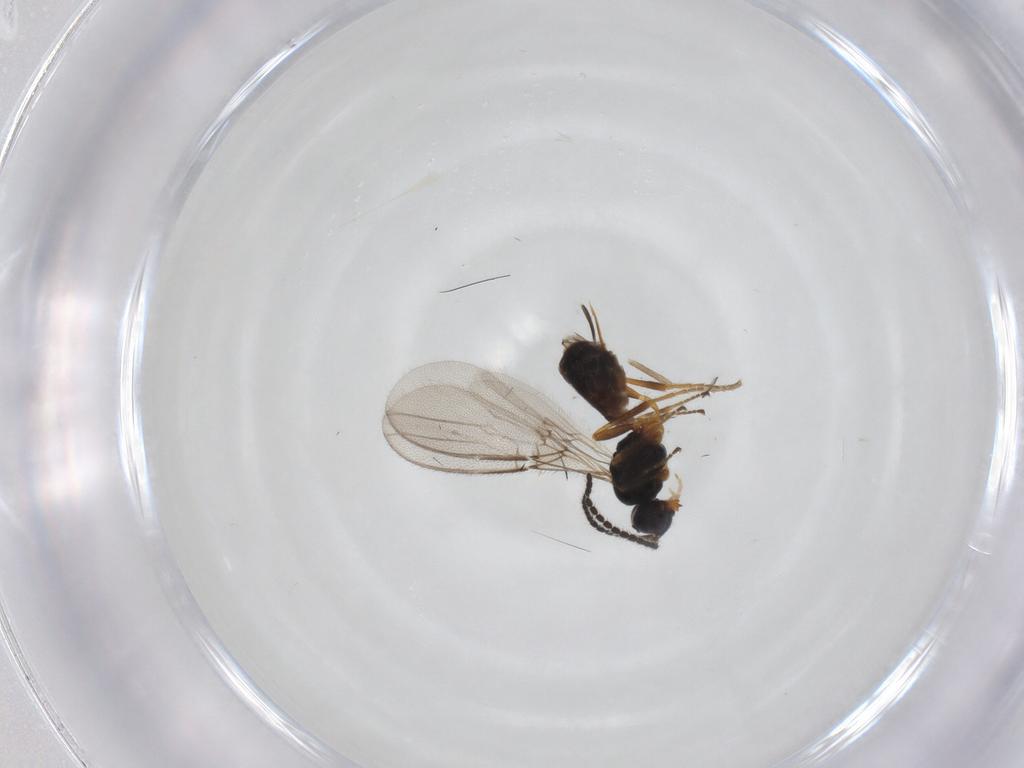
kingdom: Animalia
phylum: Arthropoda
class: Insecta
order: Hymenoptera
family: Braconidae
